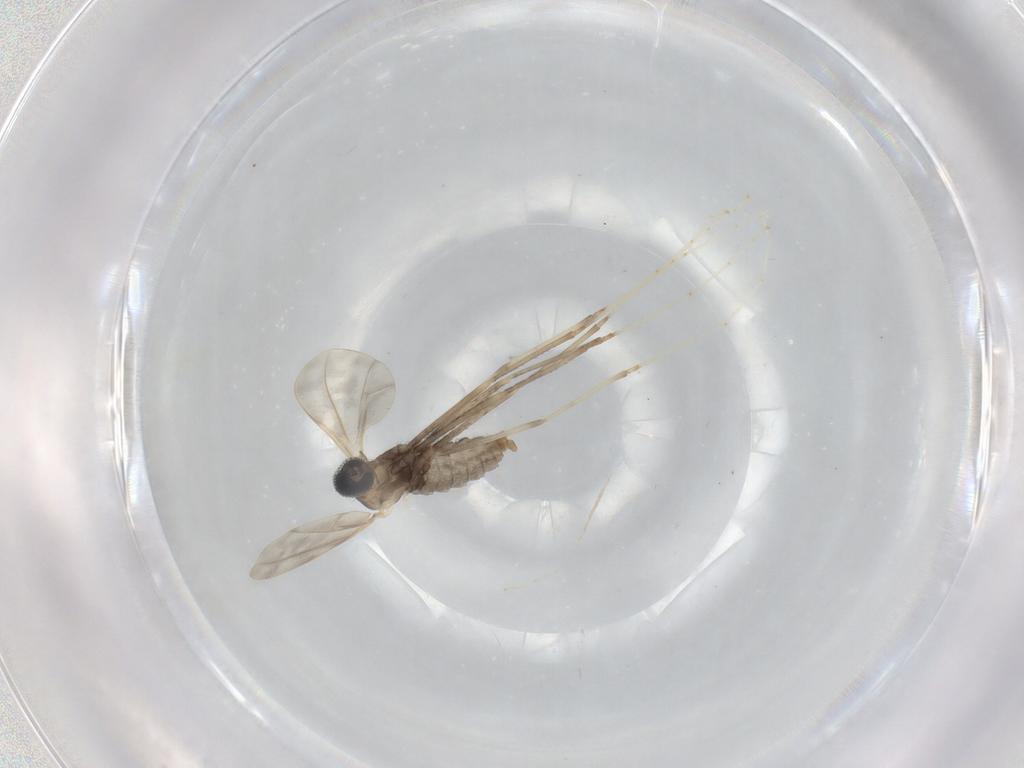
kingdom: Animalia
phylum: Arthropoda
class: Insecta
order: Diptera
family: Cecidomyiidae
